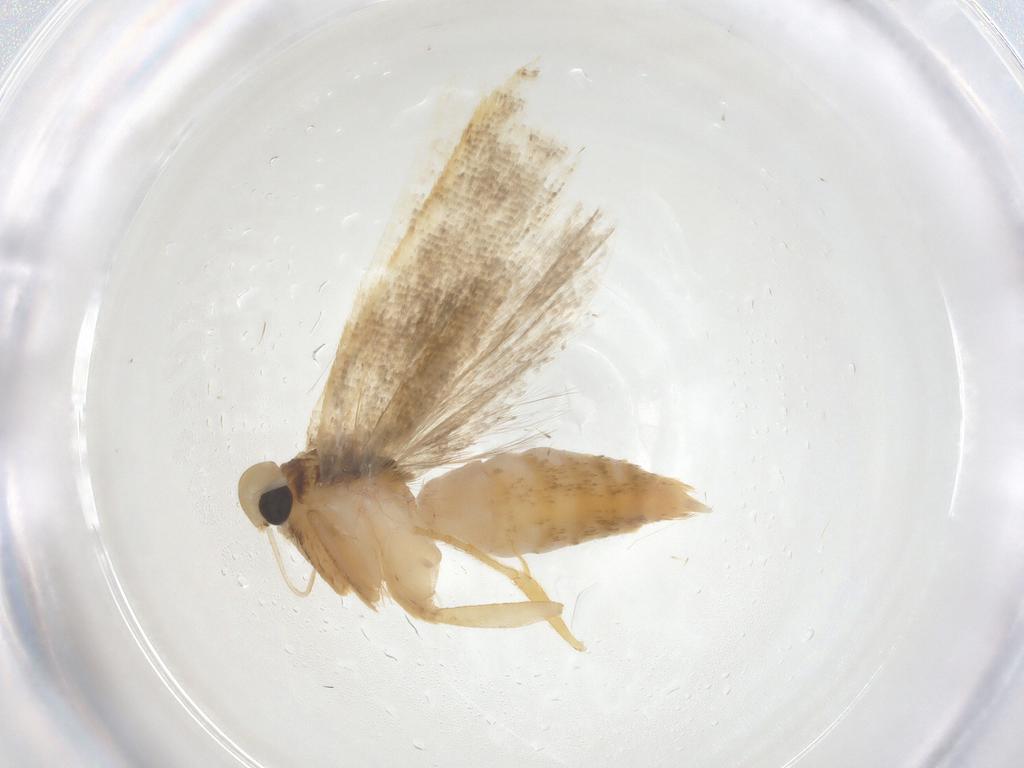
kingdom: Animalia
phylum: Arthropoda
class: Insecta
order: Lepidoptera
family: Gelechiidae
